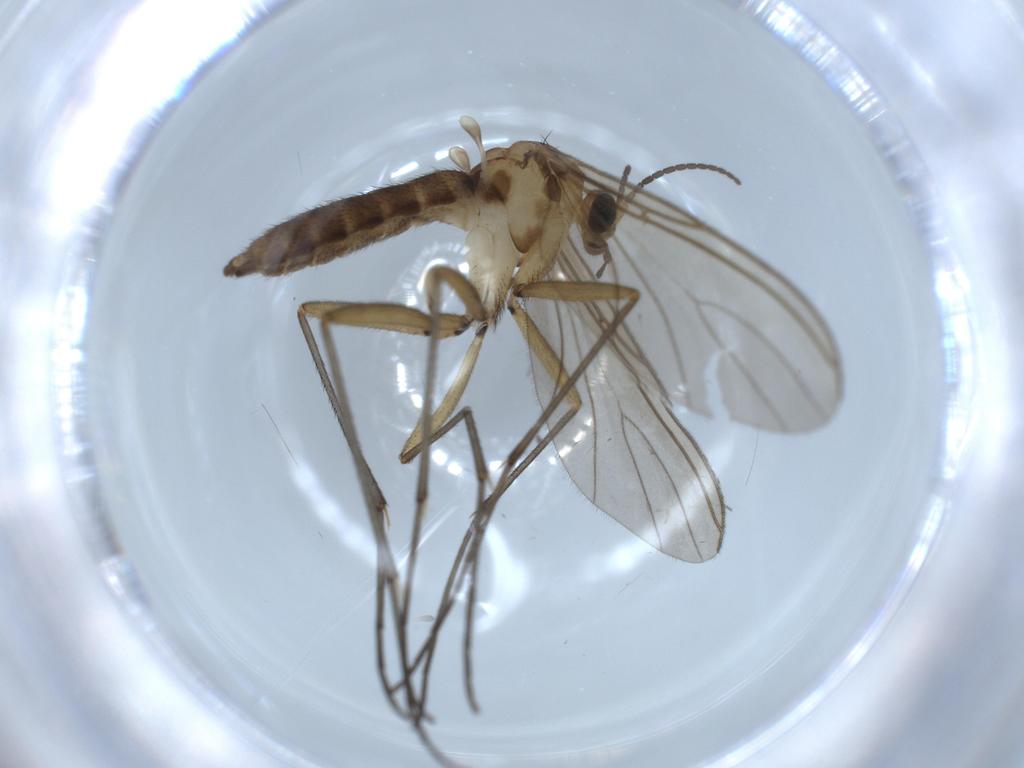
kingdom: Animalia
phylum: Arthropoda
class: Insecta
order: Diptera
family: Chironomidae
